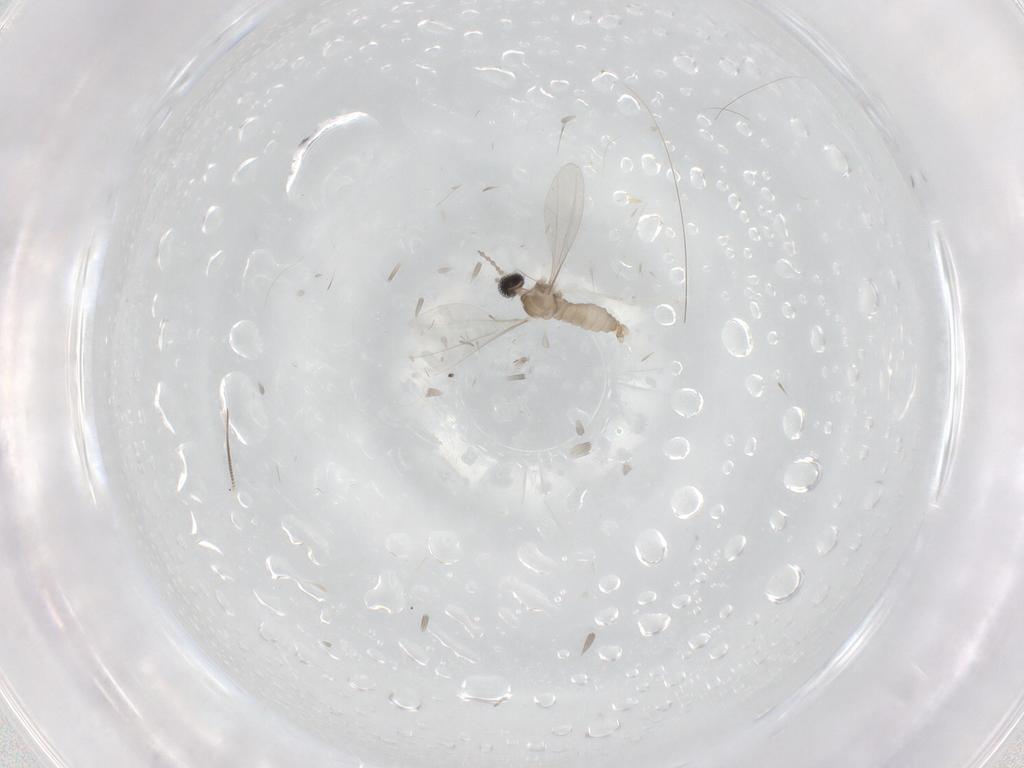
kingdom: Animalia
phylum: Arthropoda
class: Insecta
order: Diptera
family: Chironomidae
